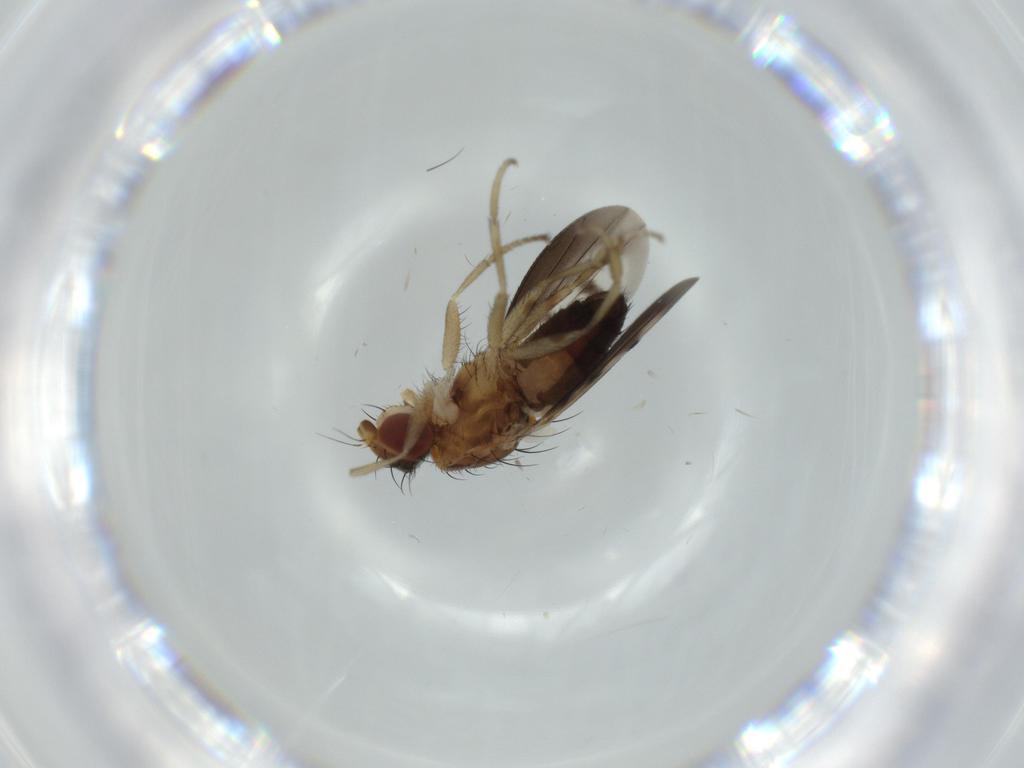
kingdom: Animalia
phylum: Arthropoda
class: Insecta
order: Diptera
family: Heleomyzidae
